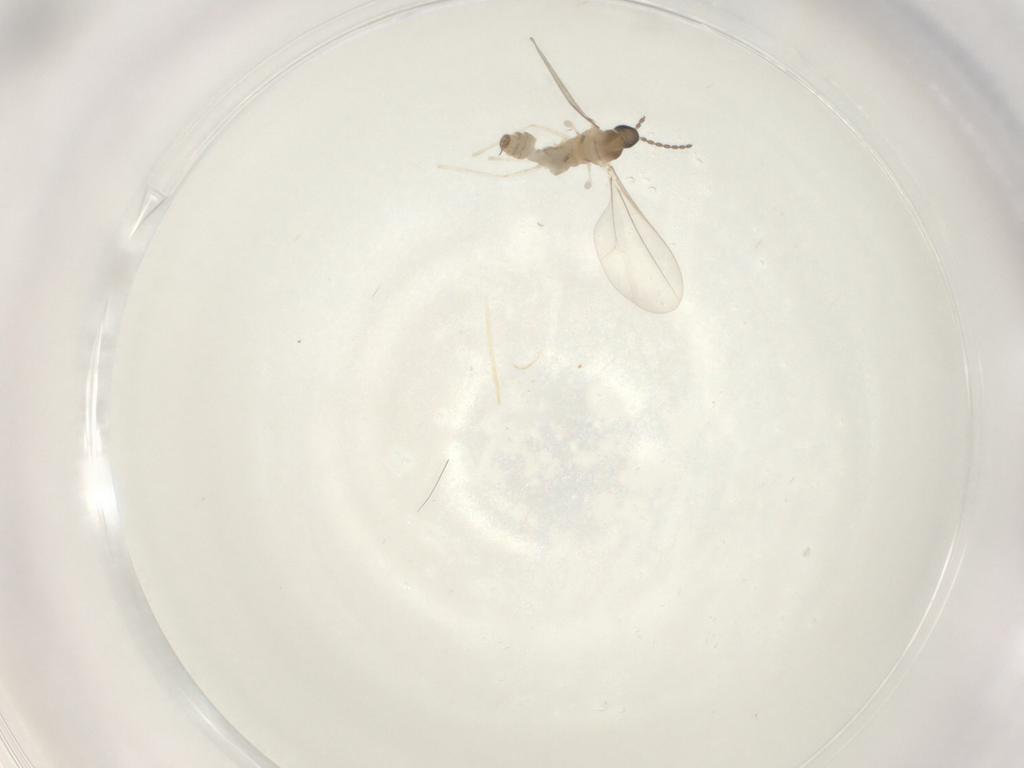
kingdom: Animalia
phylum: Arthropoda
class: Insecta
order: Diptera
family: Cecidomyiidae
